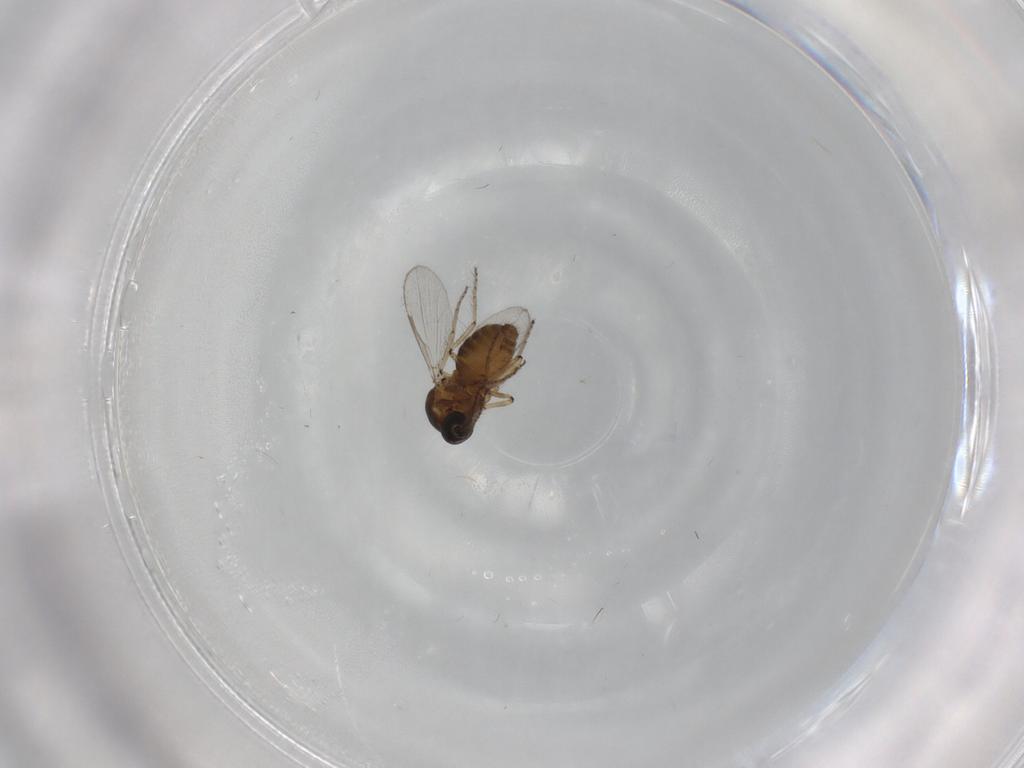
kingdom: Animalia
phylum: Arthropoda
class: Insecta
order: Diptera
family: Ceratopogonidae
